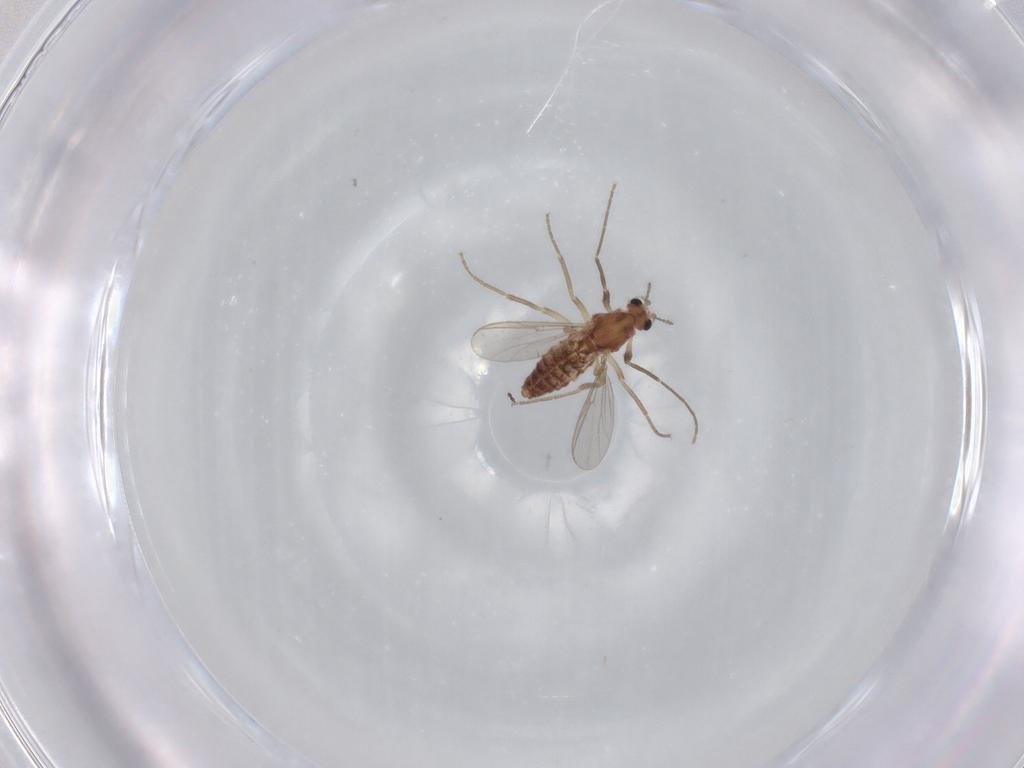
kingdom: Animalia
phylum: Arthropoda
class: Insecta
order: Diptera
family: Chironomidae
